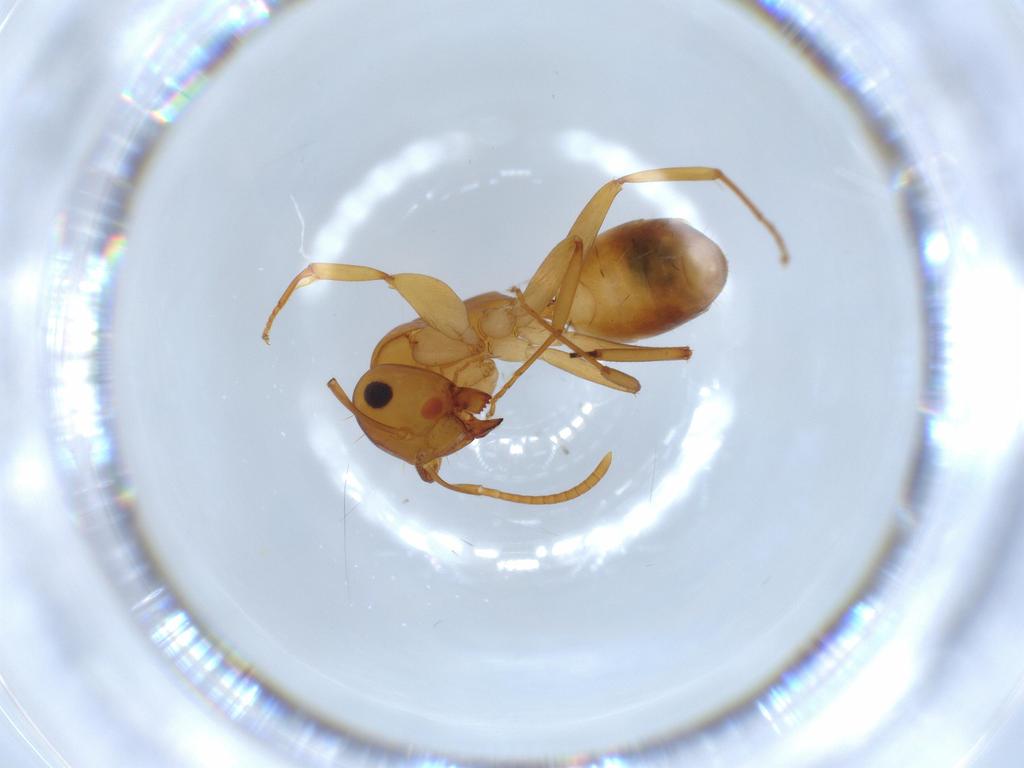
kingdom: Animalia
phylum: Arthropoda
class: Insecta
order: Hymenoptera
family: Formicidae
